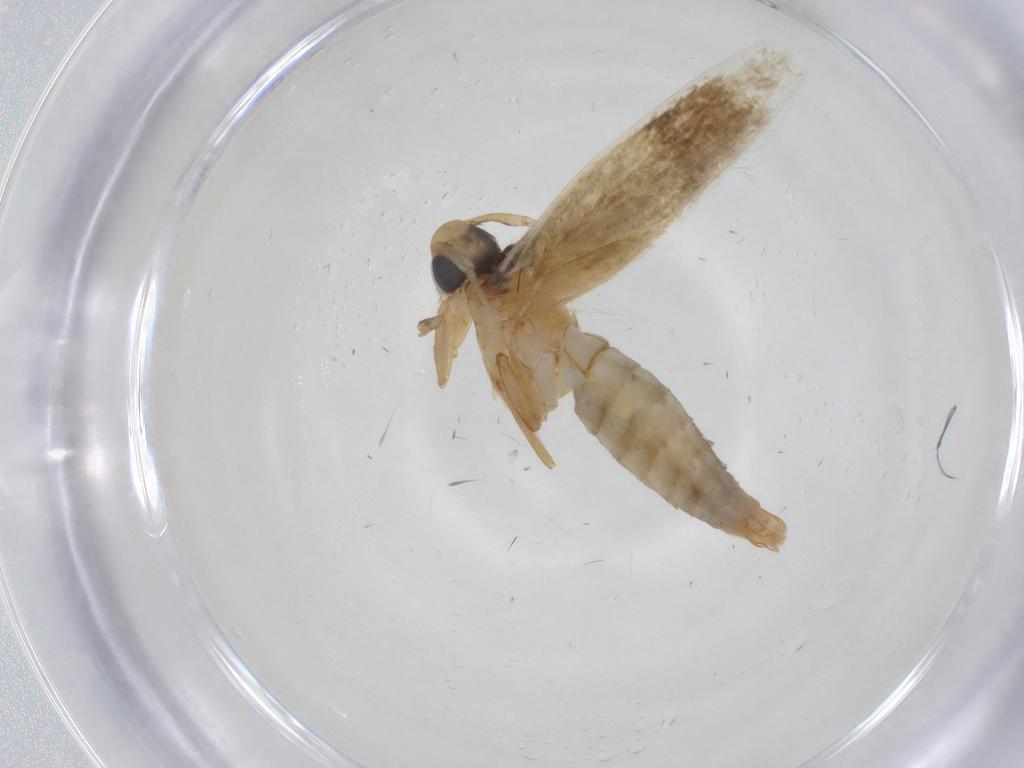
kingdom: Animalia
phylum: Arthropoda
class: Insecta
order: Lepidoptera
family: Tineidae
